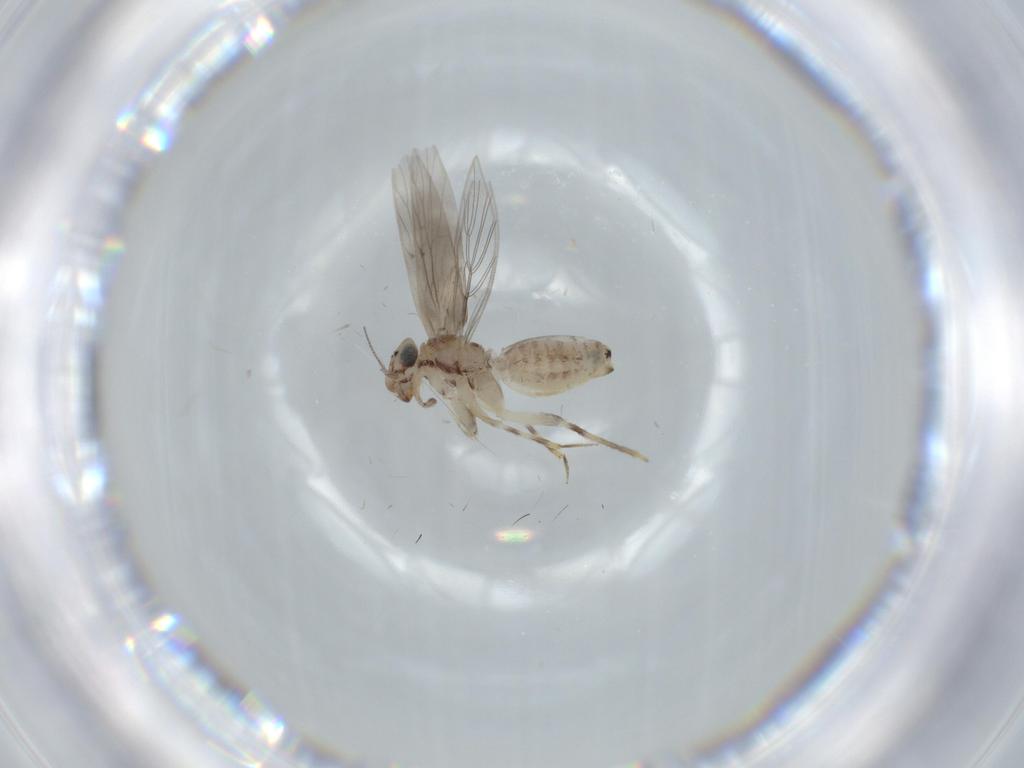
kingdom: Animalia
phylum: Arthropoda
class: Insecta
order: Psocodea
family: Lepidopsocidae
